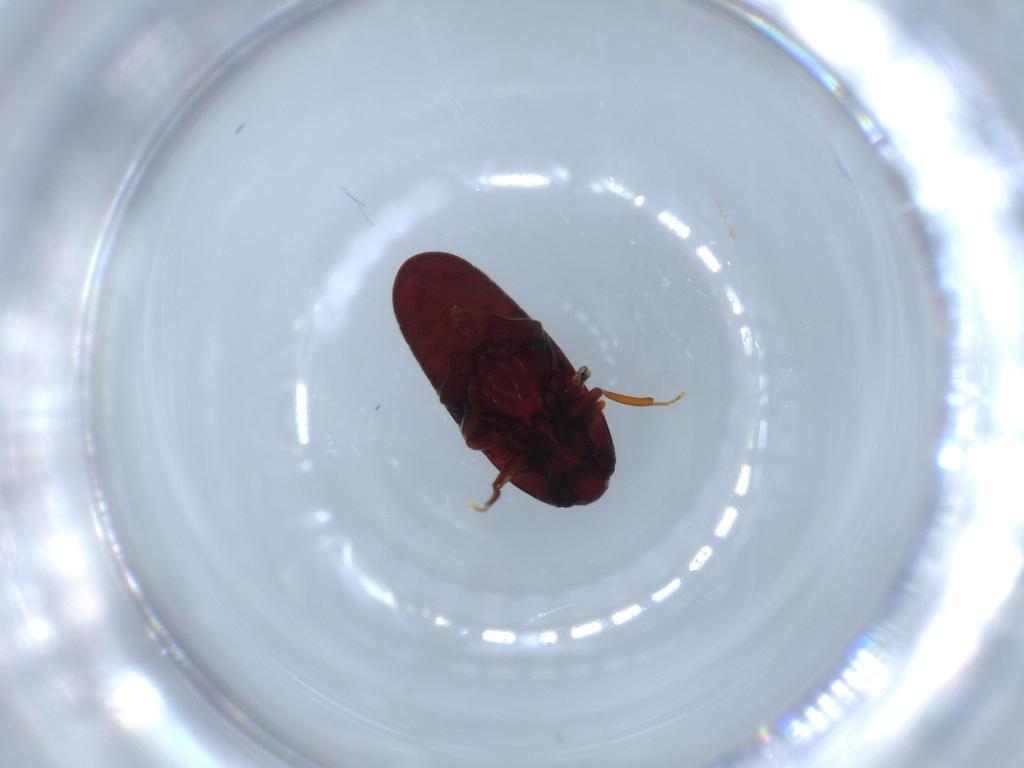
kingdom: Animalia
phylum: Arthropoda
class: Insecta
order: Coleoptera
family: Throscidae
